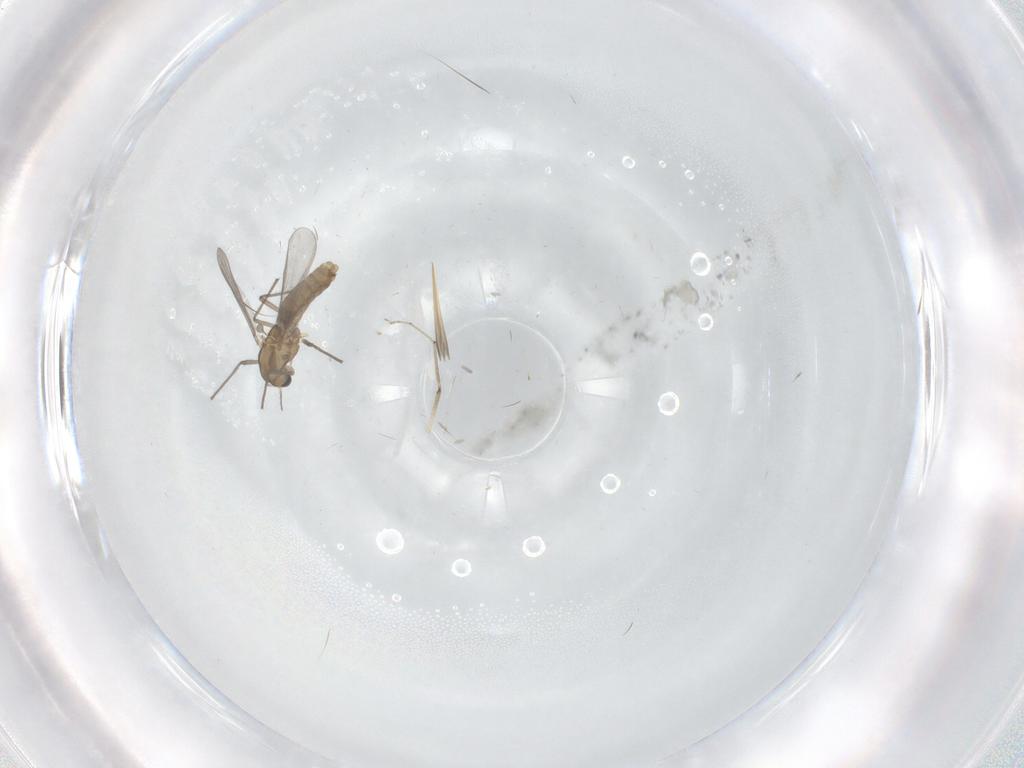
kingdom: Animalia
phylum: Arthropoda
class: Insecta
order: Diptera
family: Cecidomyiidae
